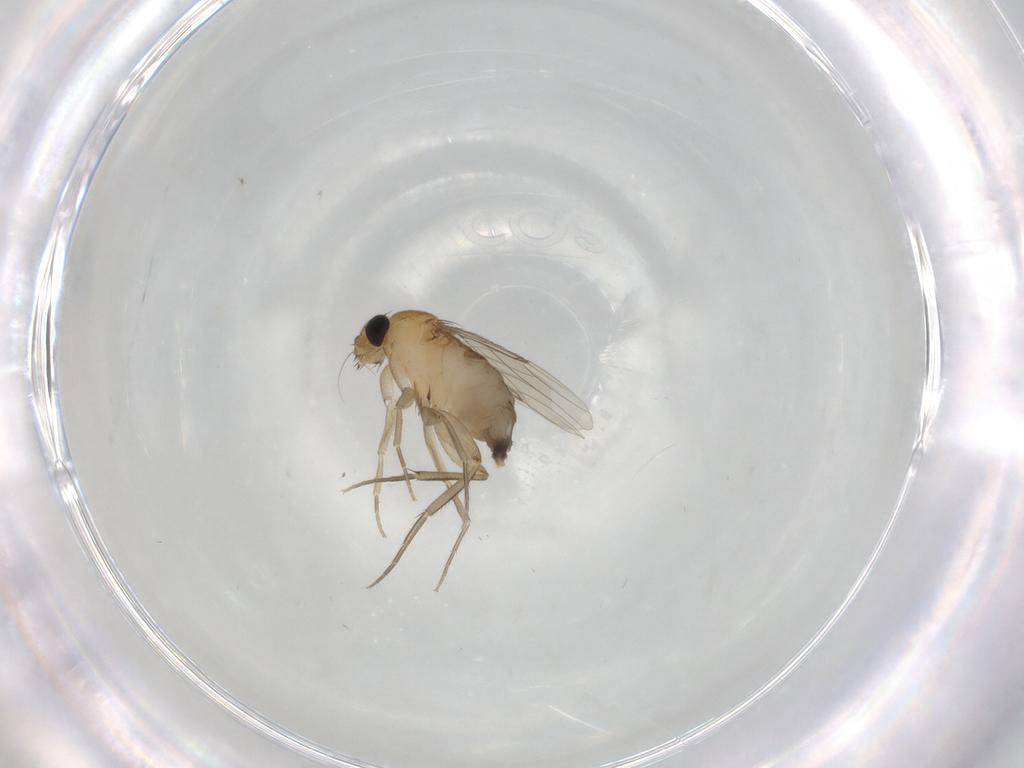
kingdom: Animalia
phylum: Arthropoda
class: Insecta
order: Diptera
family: Phoridae
